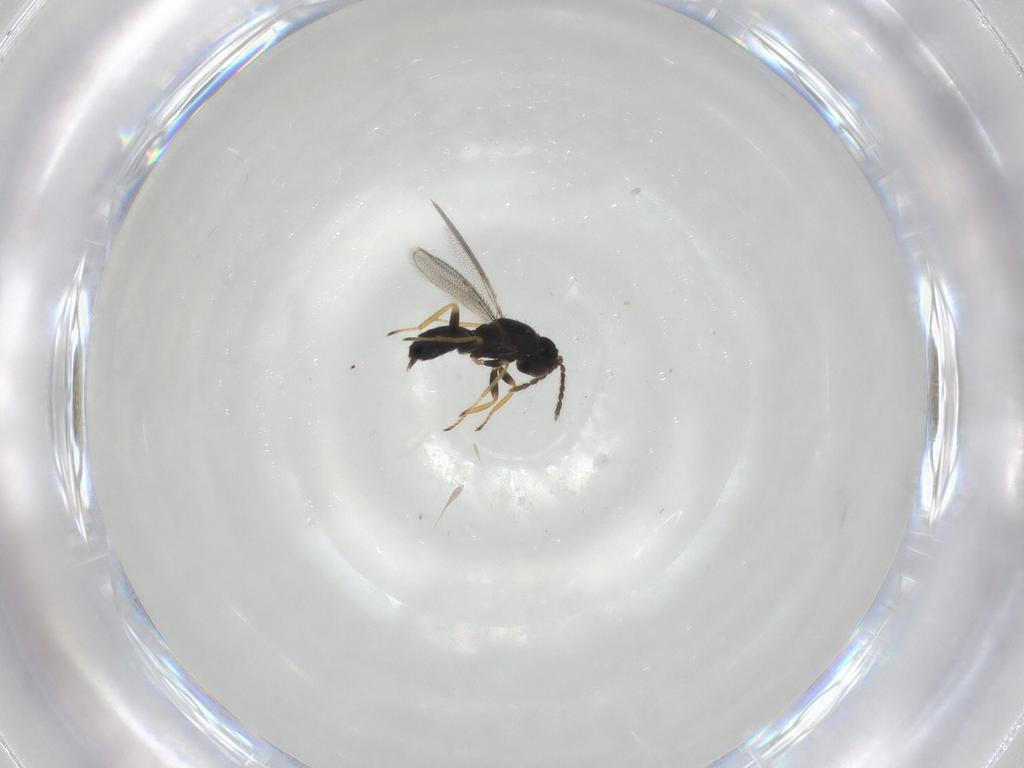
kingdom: Animalia
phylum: Arthropoda
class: Insecta
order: Hymenoptera
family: Eulophidae
